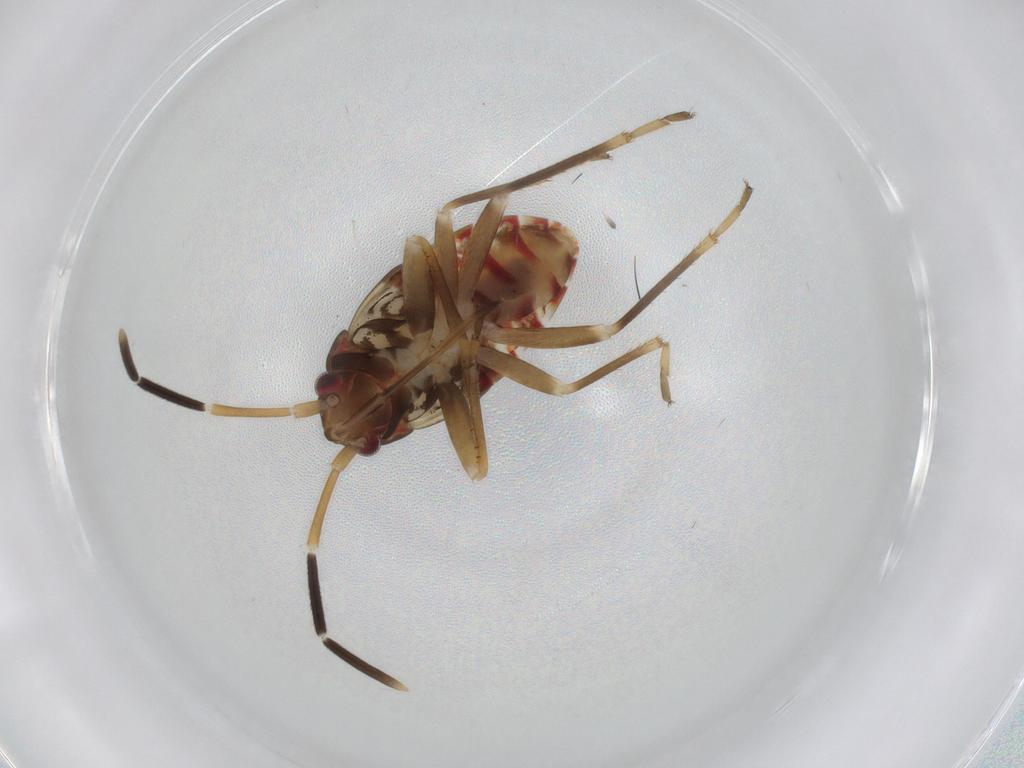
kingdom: Animalia
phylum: Arthropoda
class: Insecta
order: Hemiptera
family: Rhyparochromidae
